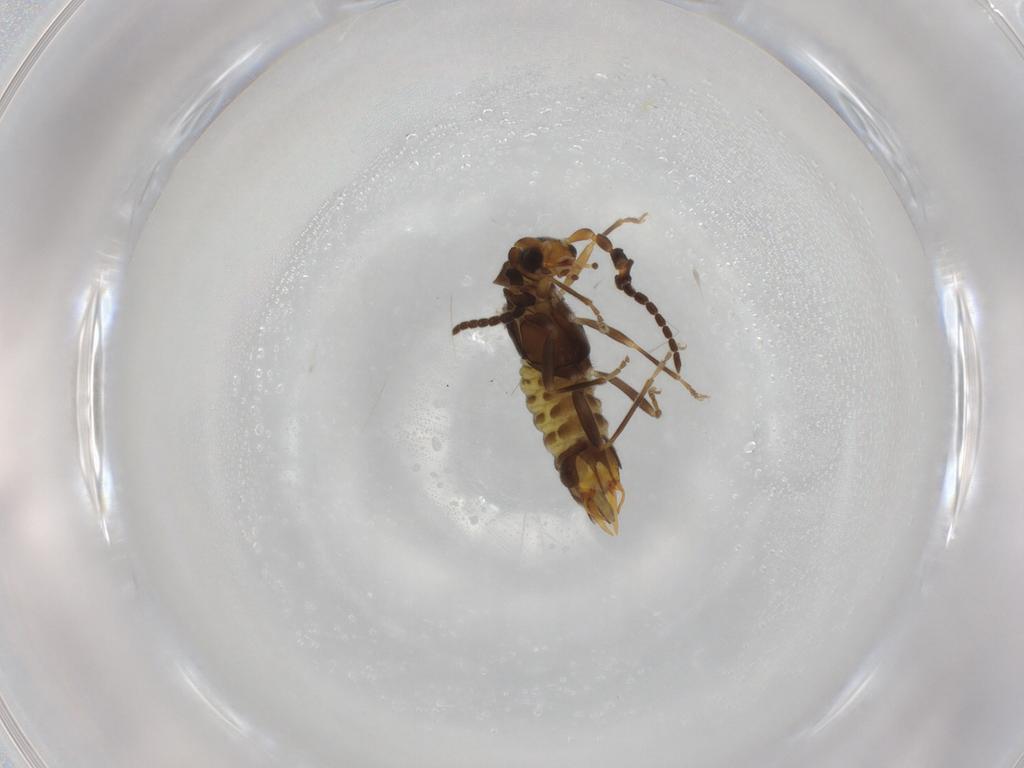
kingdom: Animalia
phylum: Arthropoda
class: Insecta
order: Coleoptera
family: Cantharidae
